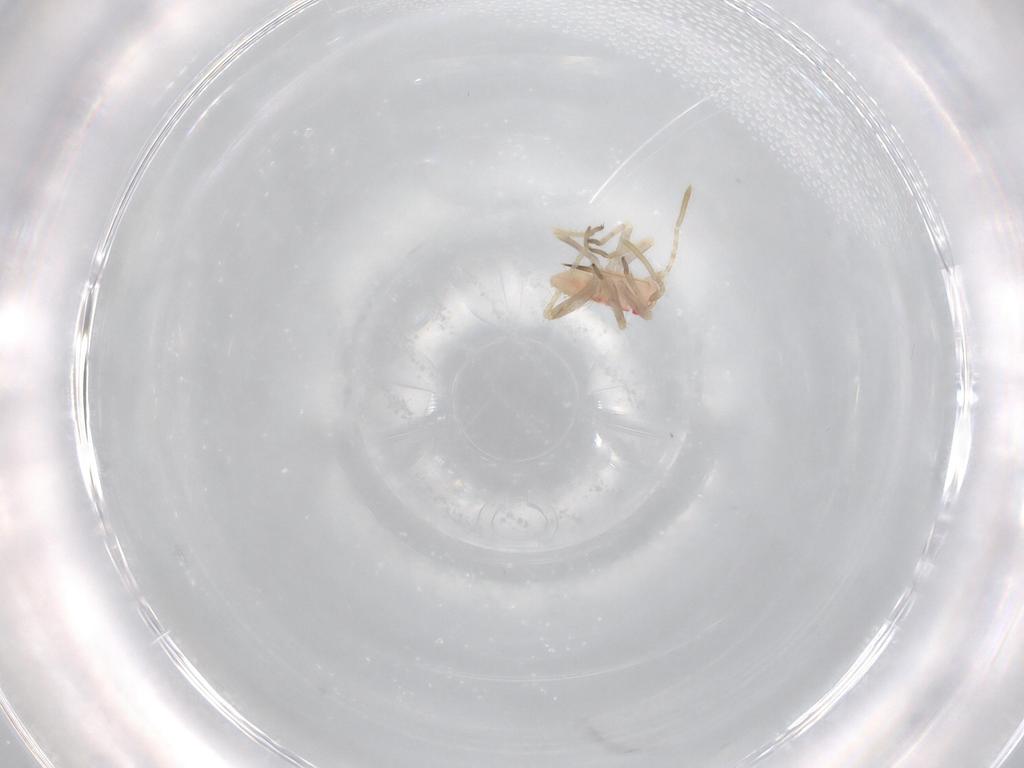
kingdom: Animalia
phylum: Arthropoda
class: Insecta
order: Hemiptera
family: Miridae
